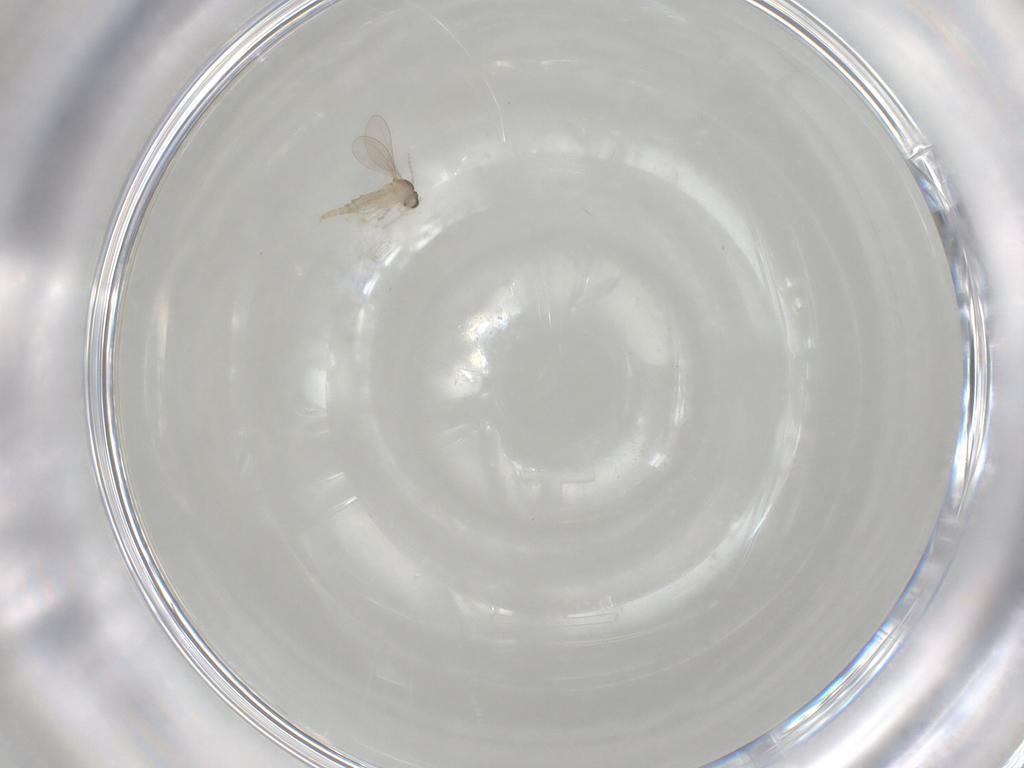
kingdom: Animalia
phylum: Arthropoda
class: Insecta
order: Diptera
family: Cecidomyiidae
